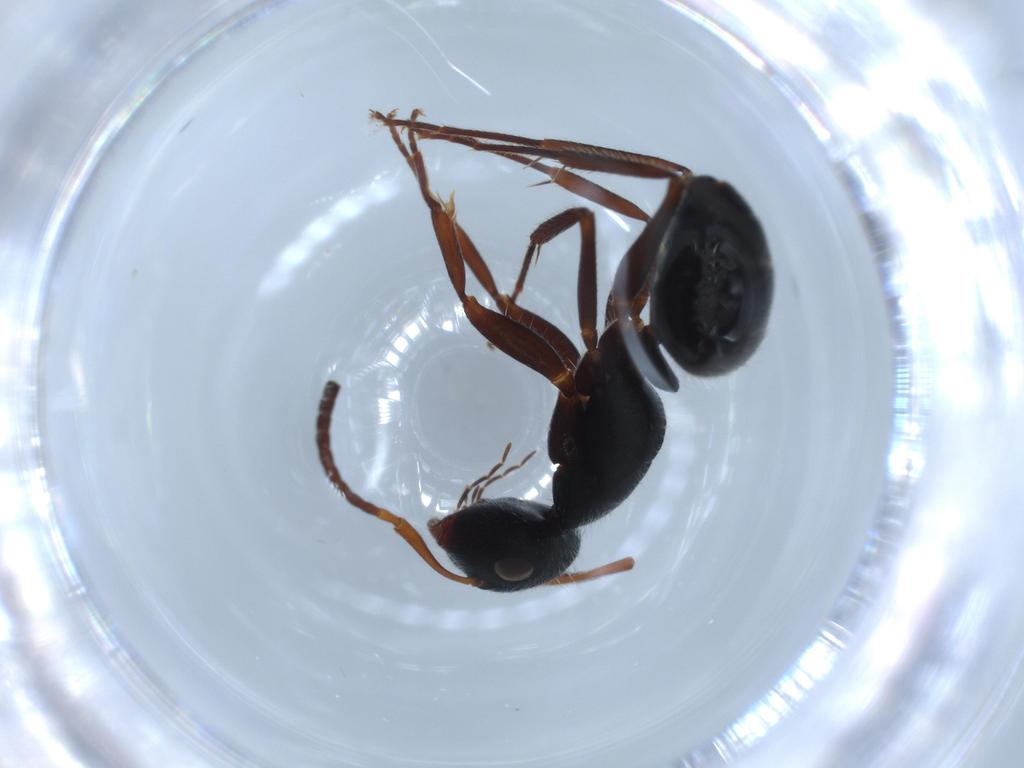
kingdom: Animalia
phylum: Arthropoda
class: Insecta
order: Hymenoptera
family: Formicidae
